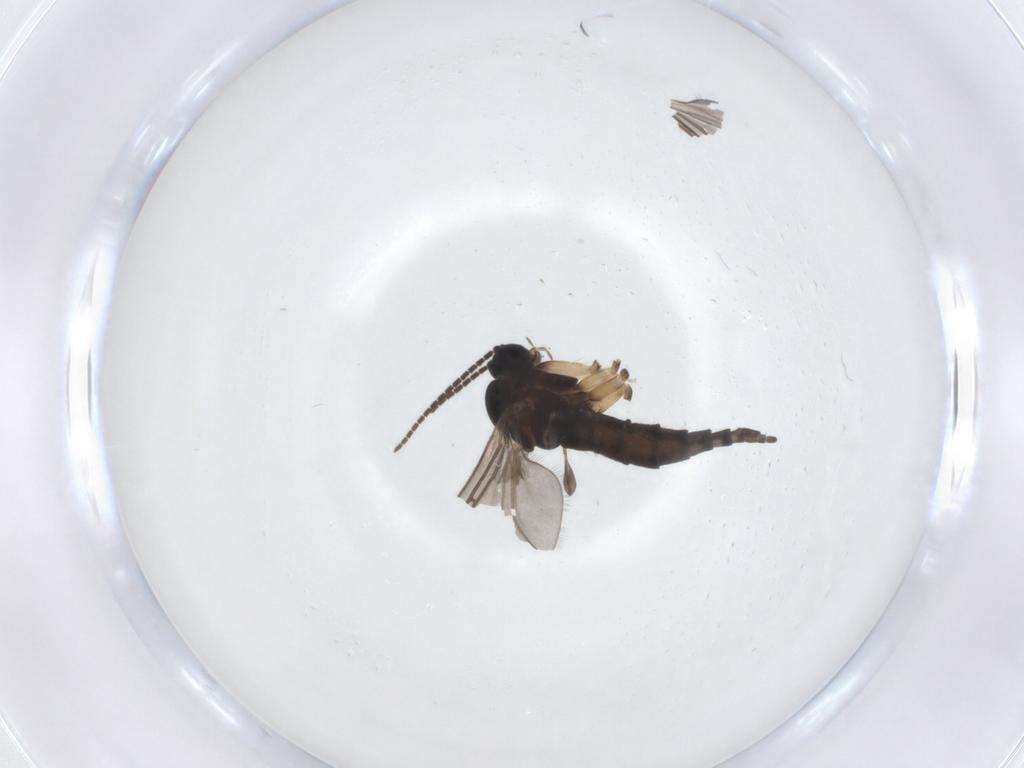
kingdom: Animalia
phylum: Arthropoda
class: Insecta
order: Diptera
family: Sciaridae
